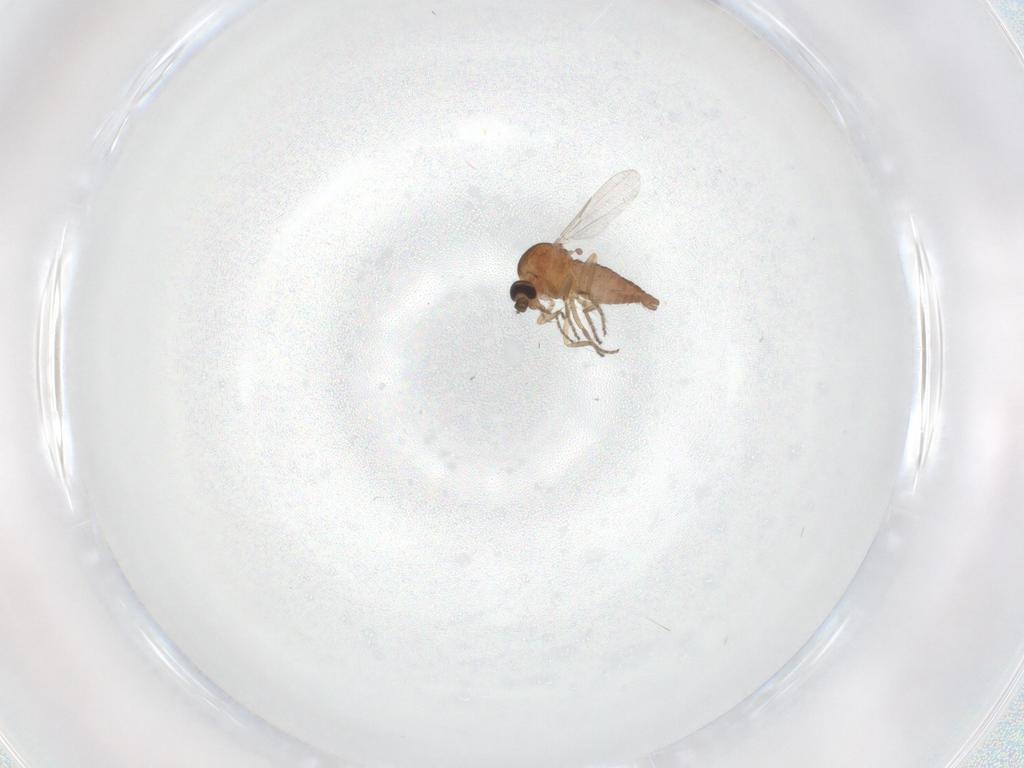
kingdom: Animalia
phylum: Arthropoda
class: Insecta
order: Diptera
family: Ceratopogonidae
